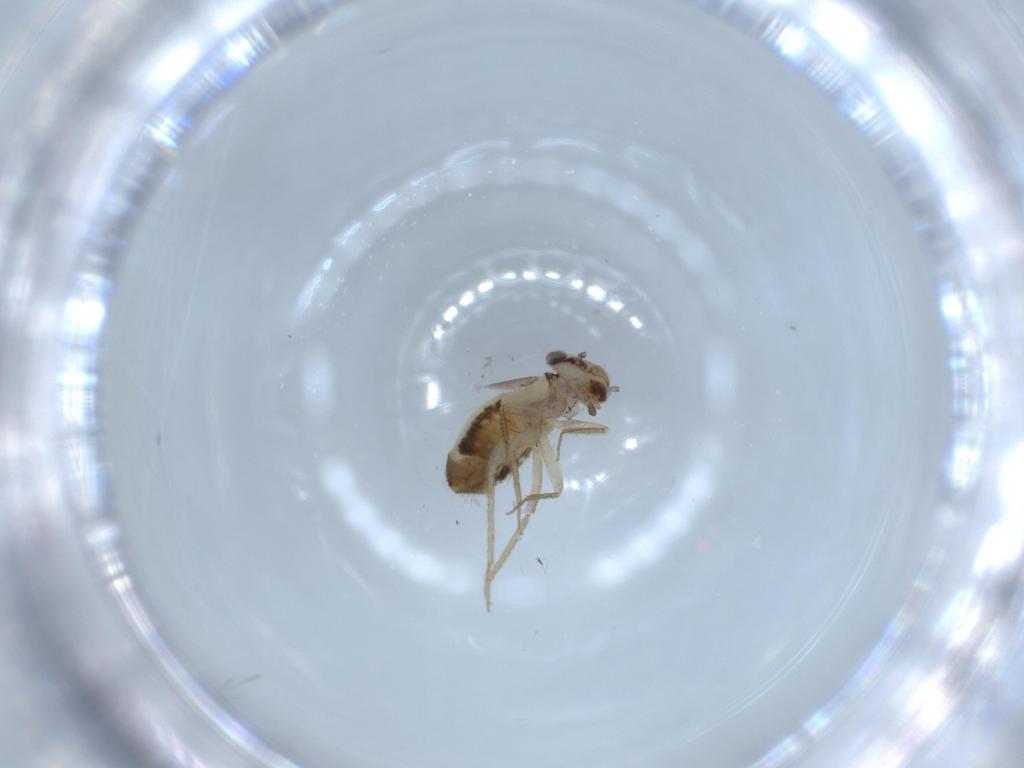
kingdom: Animalia
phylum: Arthropoda
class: Insecta
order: Psocodea
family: Lepidopsocidae
